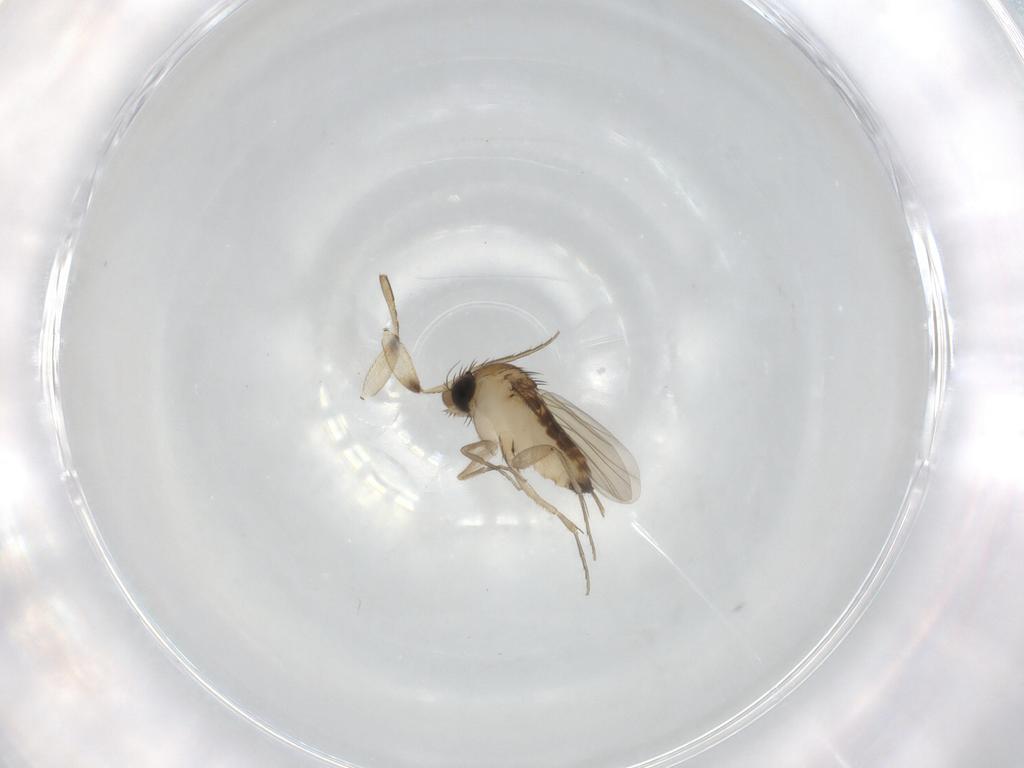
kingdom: Animalia
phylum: Arthropoda
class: Insecta
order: Diptera
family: Phoridae
